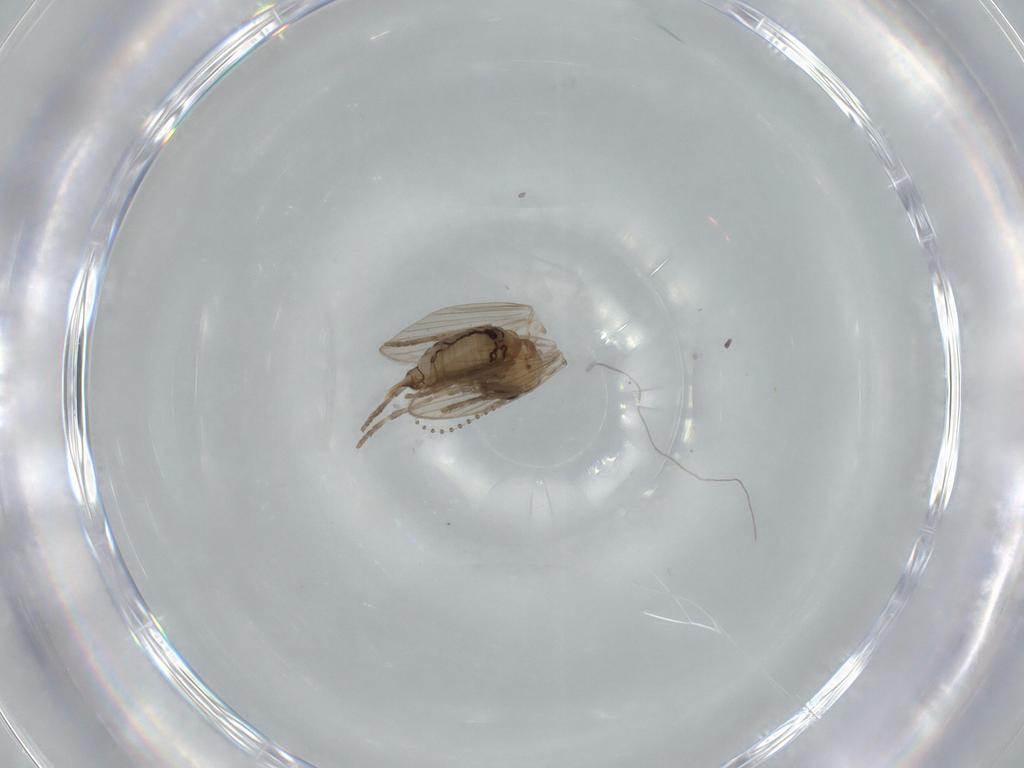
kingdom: Animalia
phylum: Arthropoda
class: Insecta
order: Diptera
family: Psychodidae
